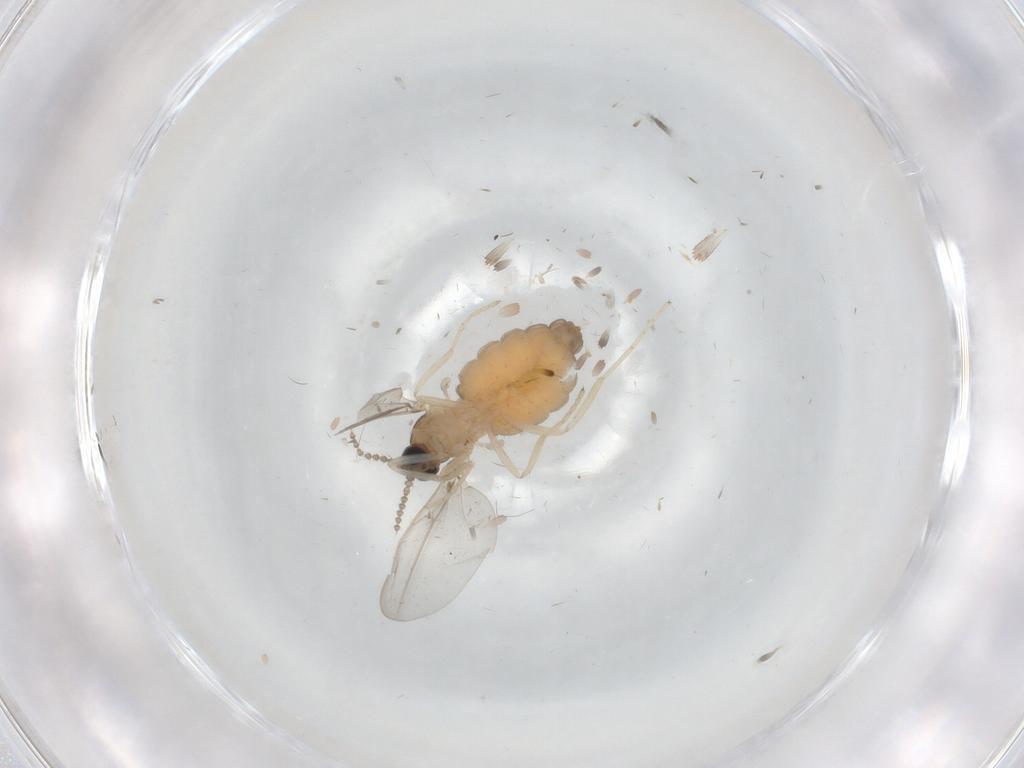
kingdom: Animalia
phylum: Arthropoda
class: Insecta
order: Diptera
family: Cecidomyiidae
